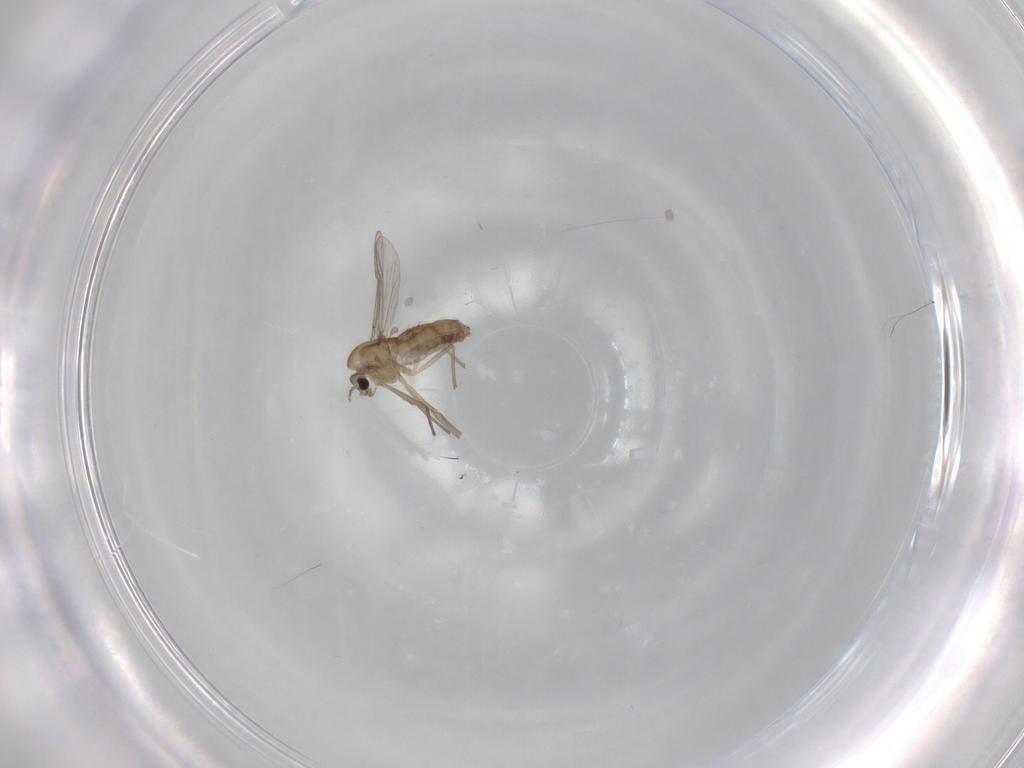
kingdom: Animalia
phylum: Arthropoda
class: Insecta
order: Diptera
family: Chironomidae
